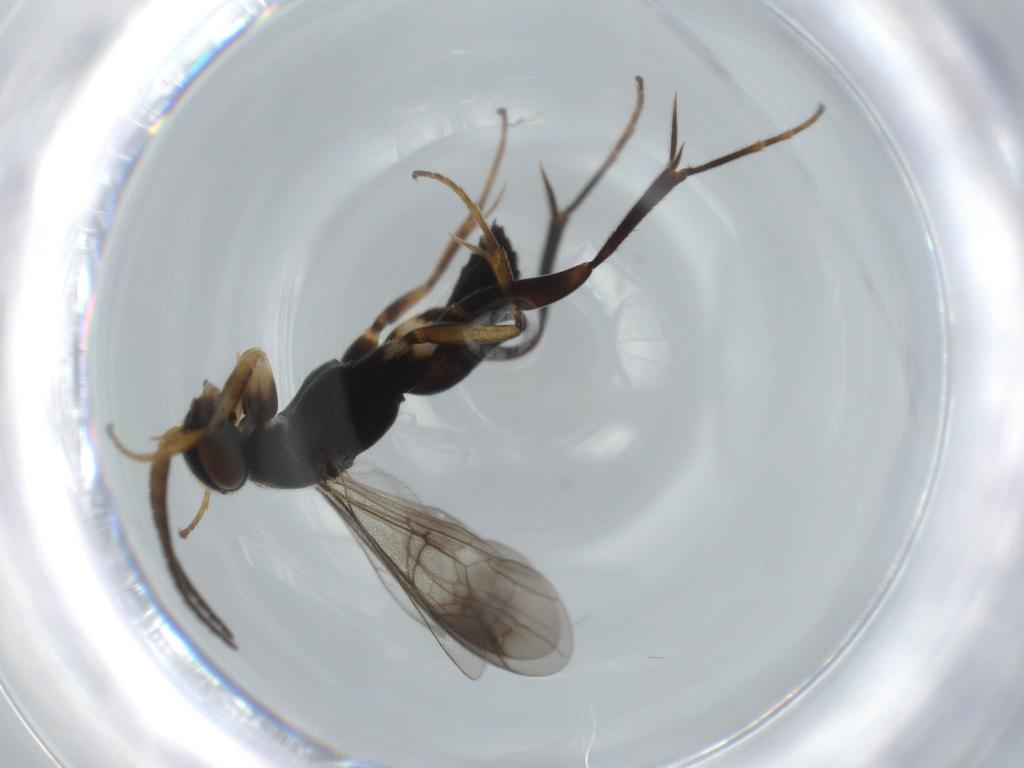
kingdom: Animalia
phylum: Arthropoda
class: Insecta
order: Hymenoptera
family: Pompilidae
